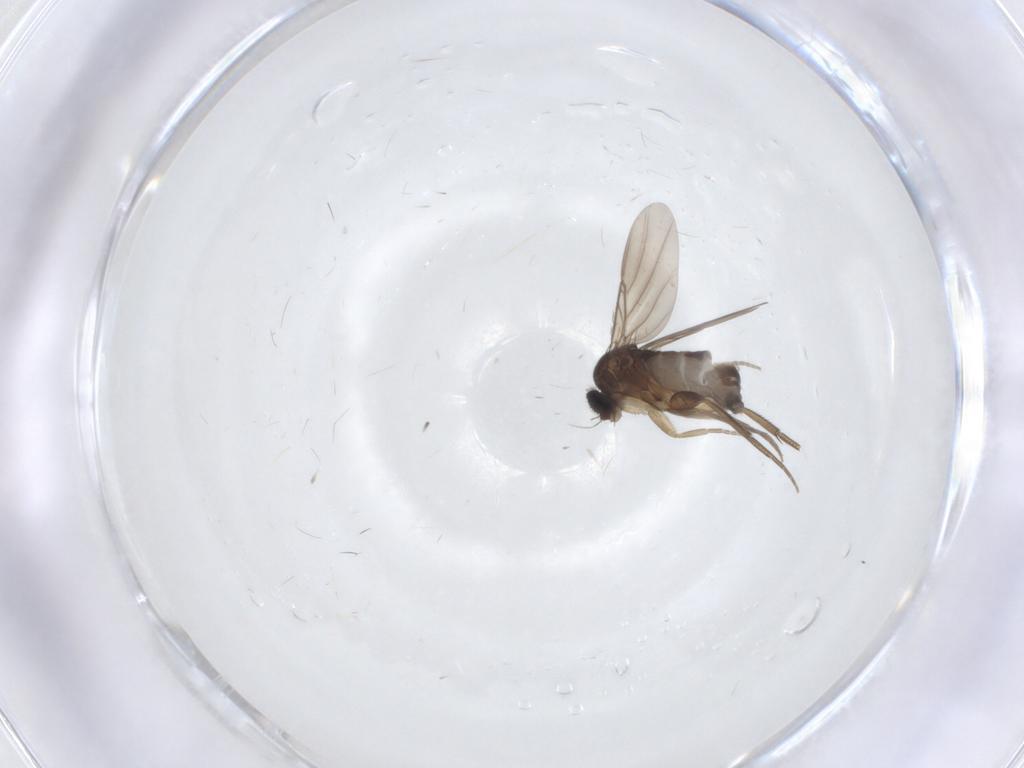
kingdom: Animalia
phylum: Arthropoda
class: Insecta
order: Diptera
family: Phoridae
